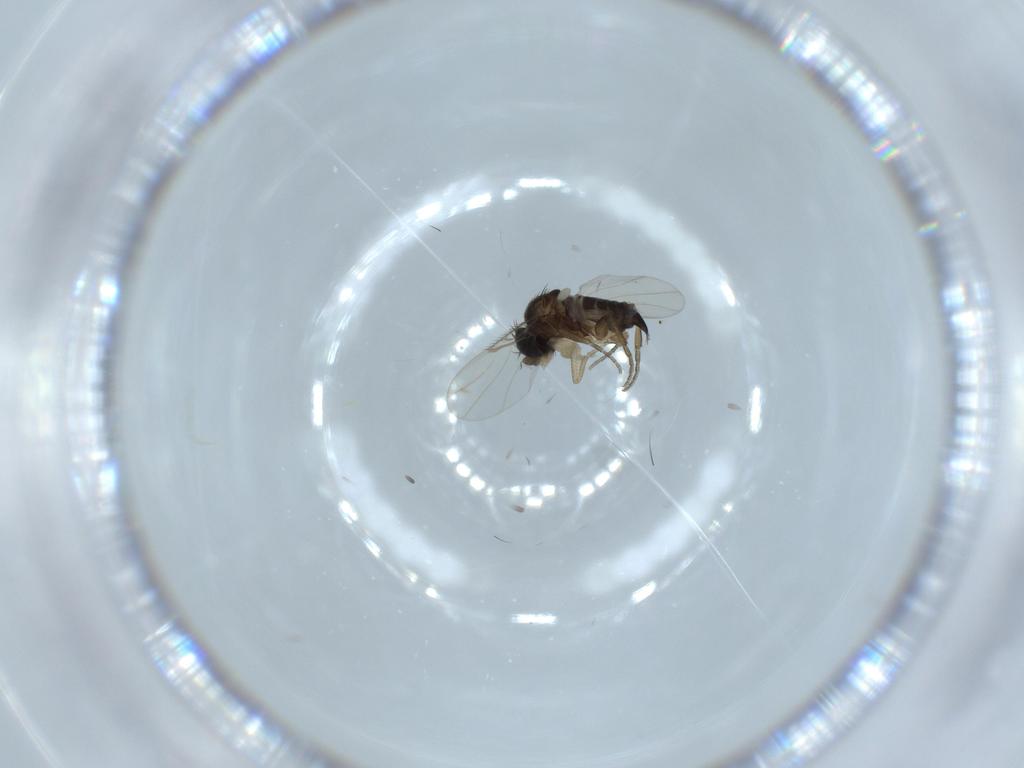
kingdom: Animalia
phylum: Arthropoda
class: Insecta
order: Diptera
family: Phoridae
